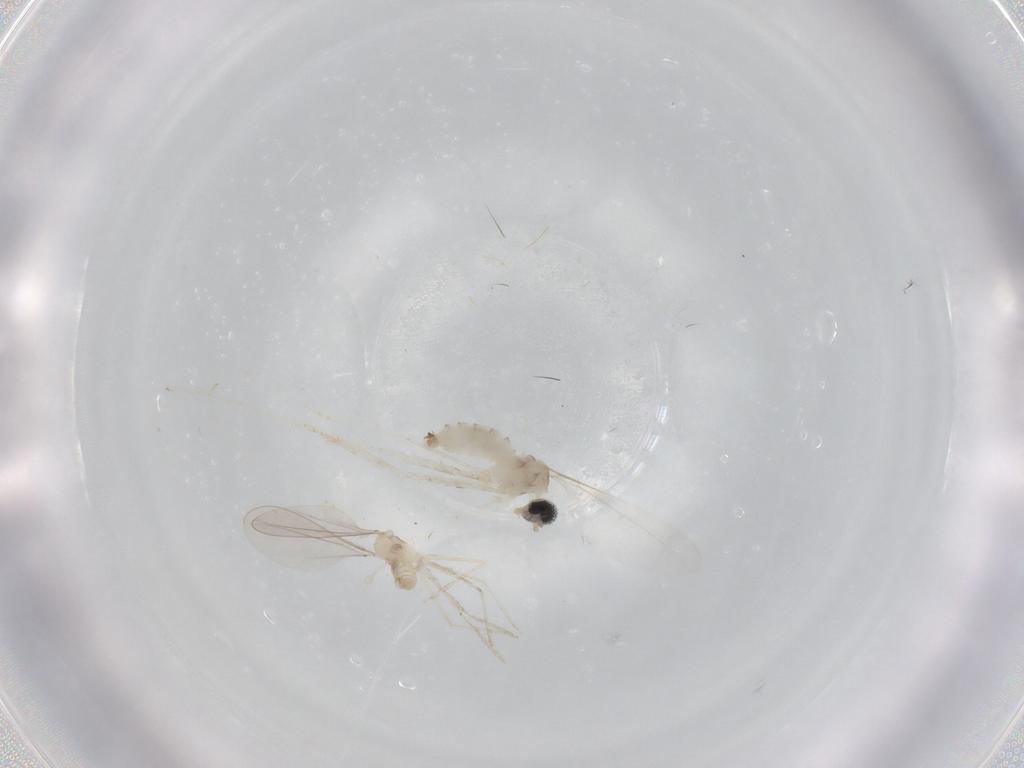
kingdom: Animalia
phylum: Arthropoda
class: Insecta
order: Diptera
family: Cecidomyiidae
